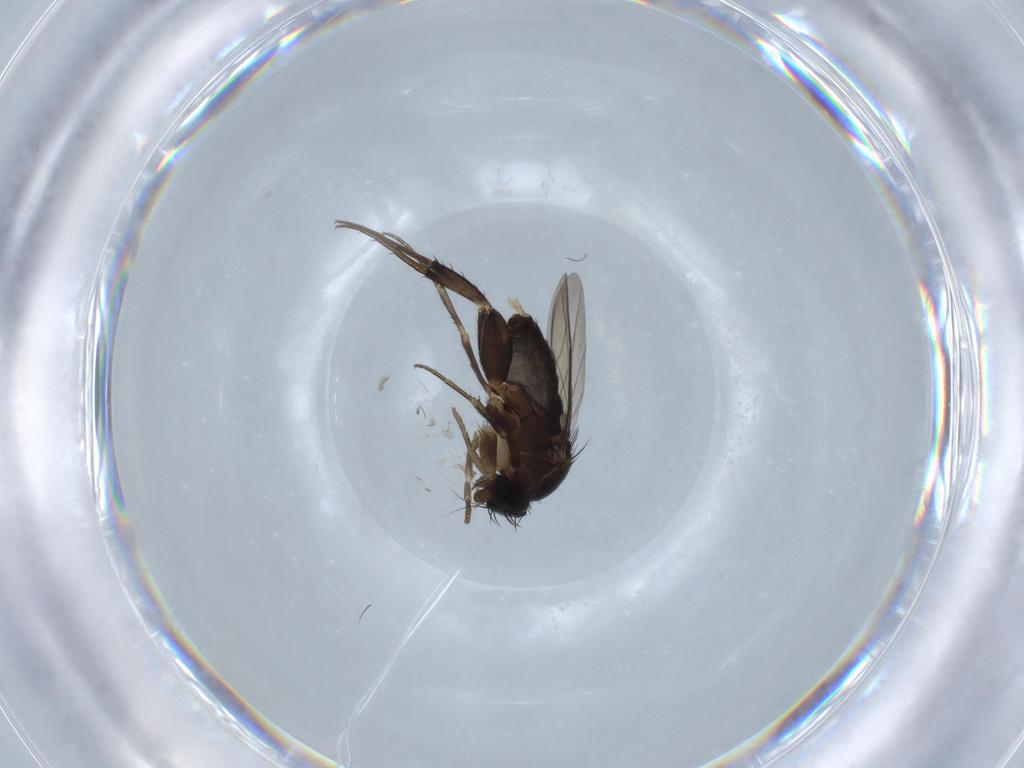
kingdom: Animalia
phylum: Arthropoda
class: Insecta
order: Diptera
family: Phoridae
